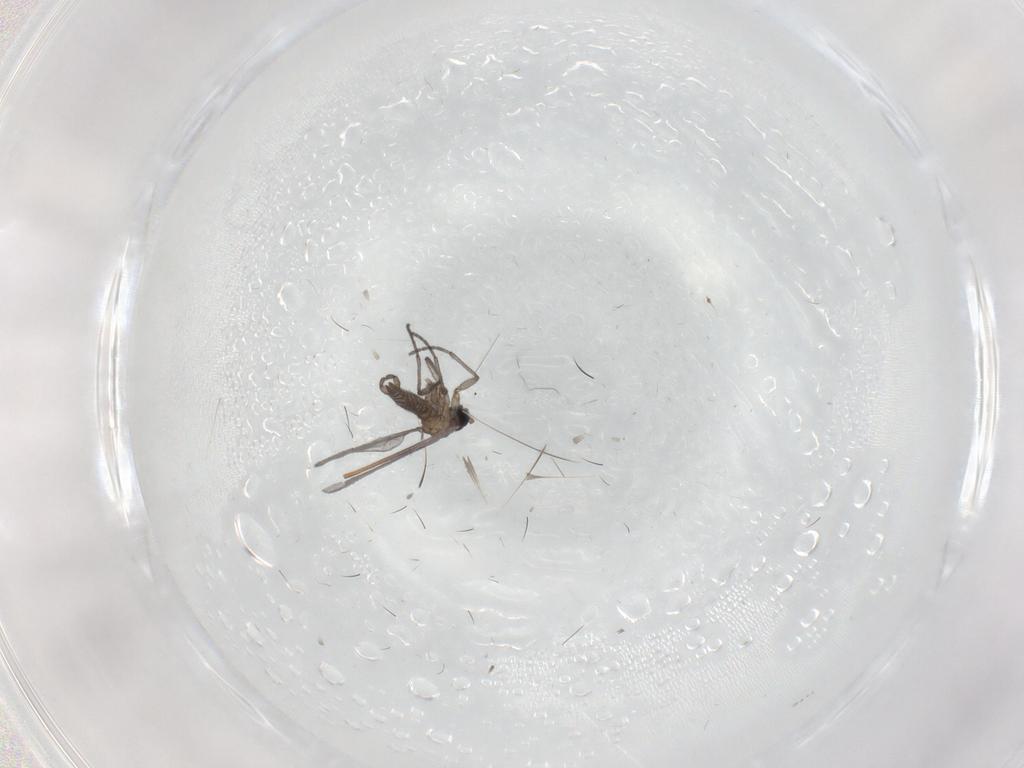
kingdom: Animalia
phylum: Arthropoda
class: Insecta
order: Diptera
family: Sciaridae
